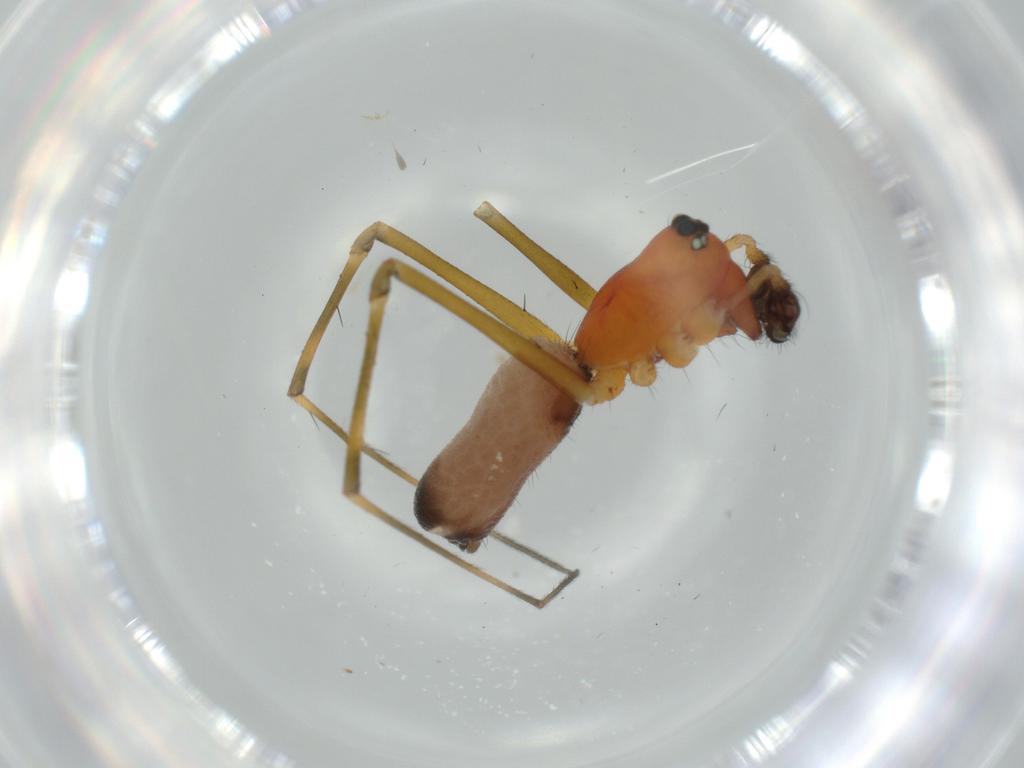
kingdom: Animalia
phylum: Arthropoda
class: Arachnida
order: Araneae
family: Linyphiidae
